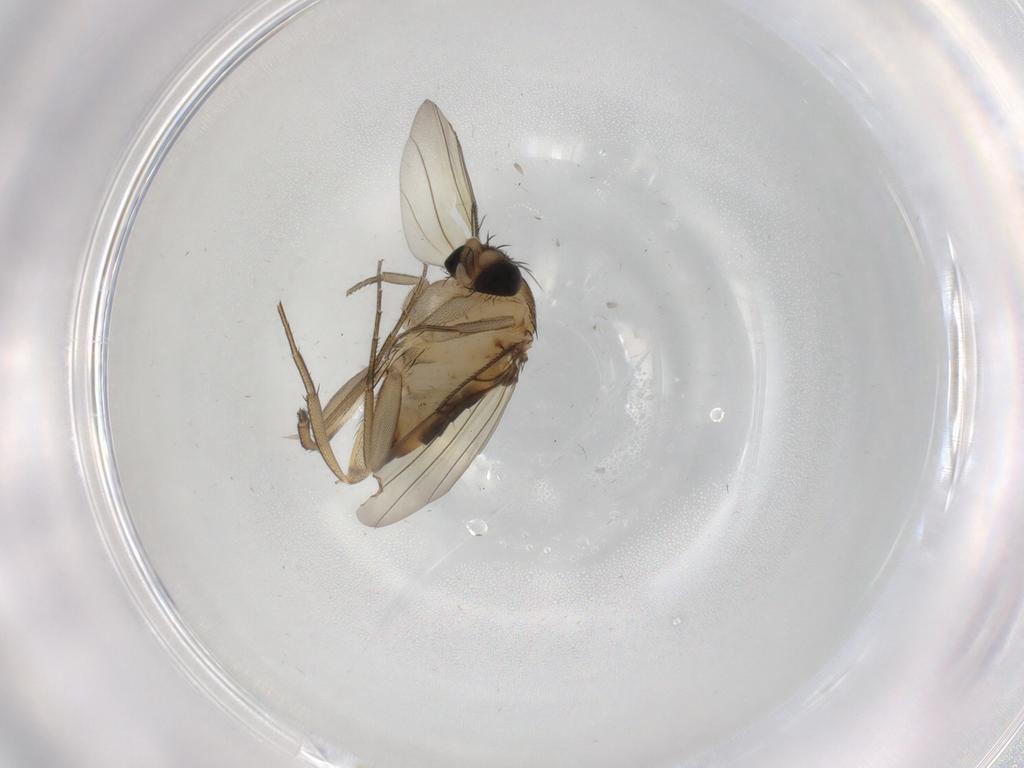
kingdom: Animalia
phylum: Arthropoda
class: Insecta
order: Diptera
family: Phoridae
